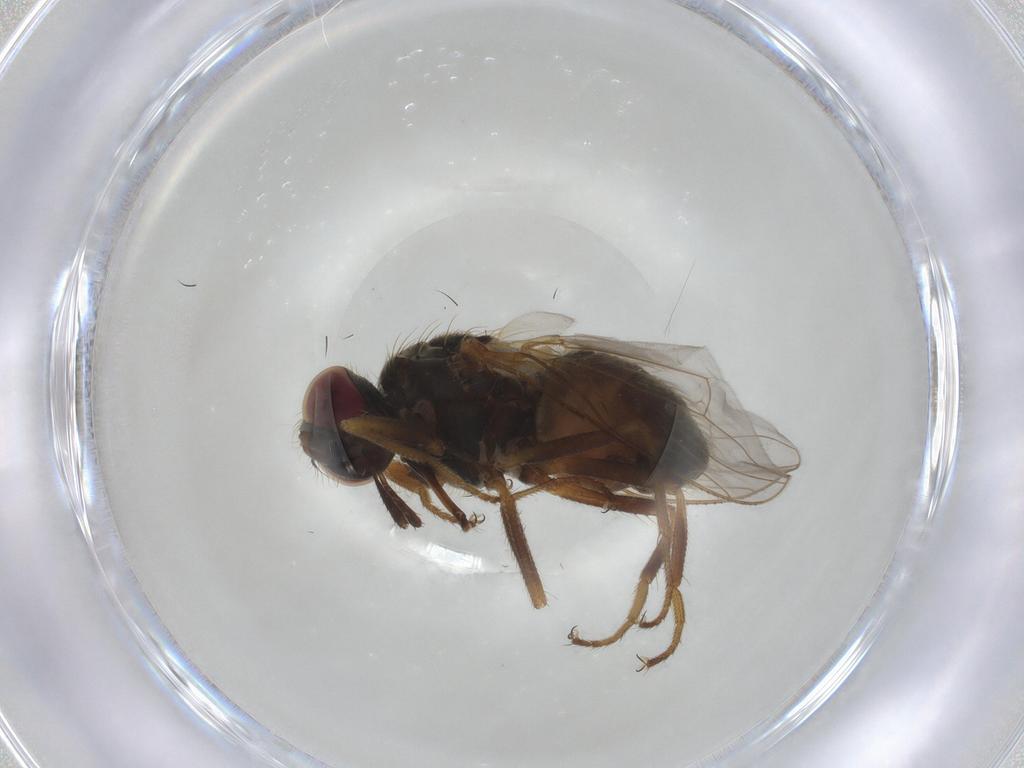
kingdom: Animalia
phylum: Arthropoda
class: Insecta
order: Diptera
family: Muscidae
